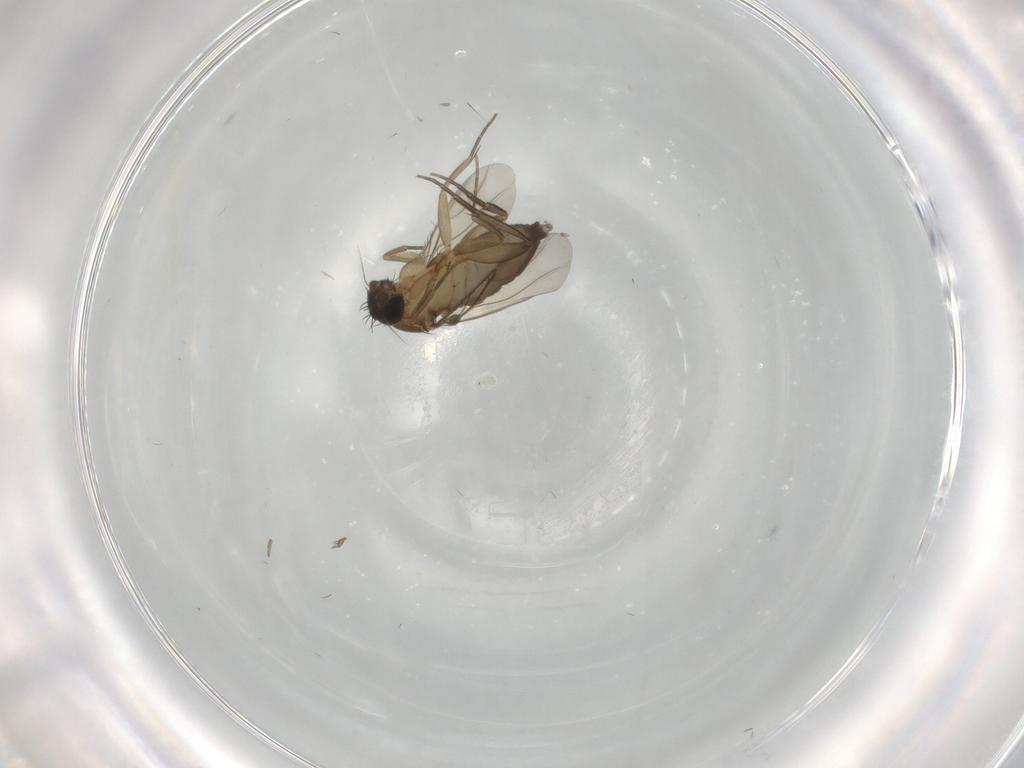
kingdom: Animalia
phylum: Arthropoda
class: Insecta
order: Diptera
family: Phoridae
